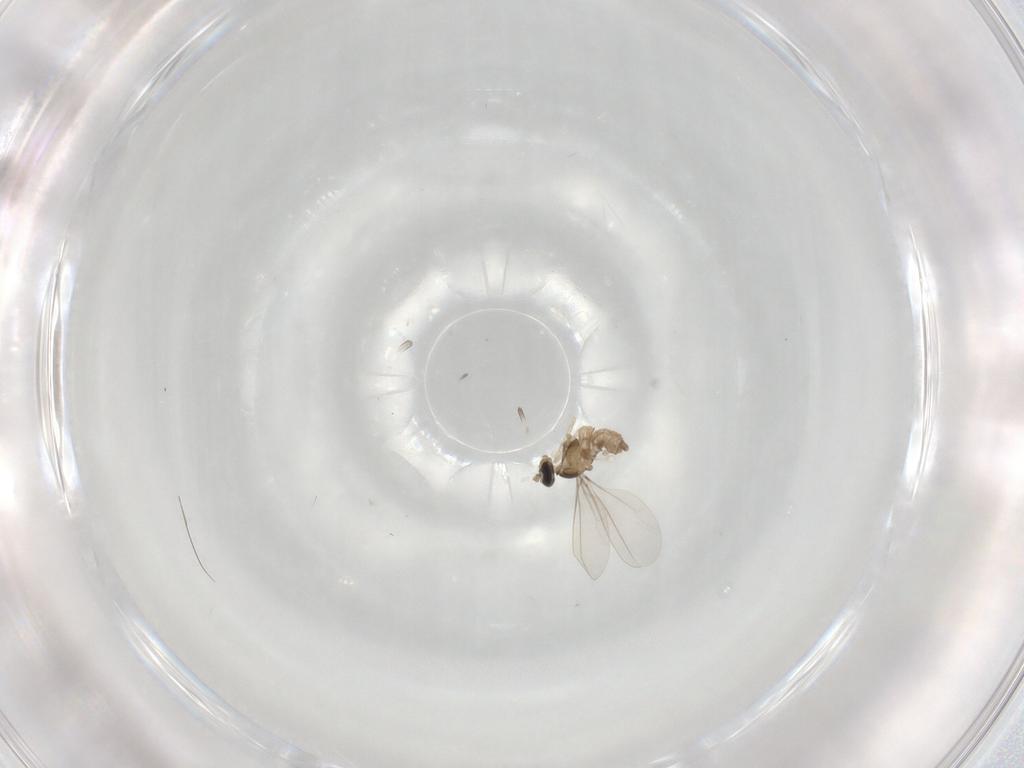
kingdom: Animalia
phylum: Arthropoda
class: Insecta
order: Diptera
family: Cecidomyiidae
